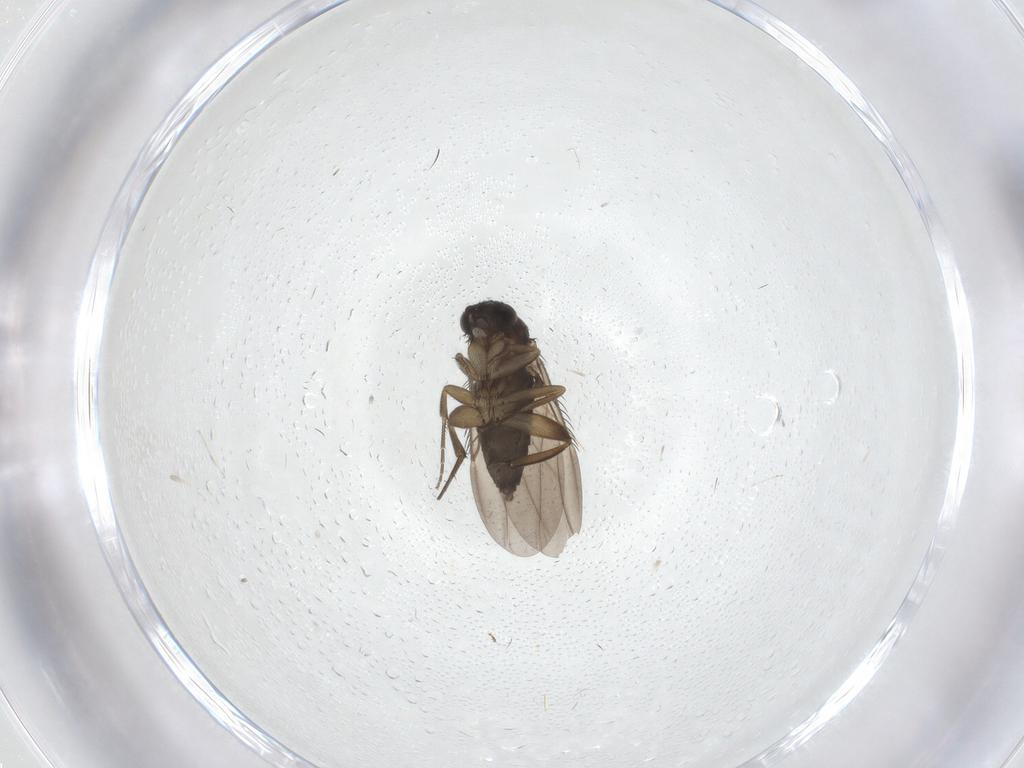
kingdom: Animalia
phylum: Arthropoda
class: Insecta
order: Diptera
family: Phoridae
